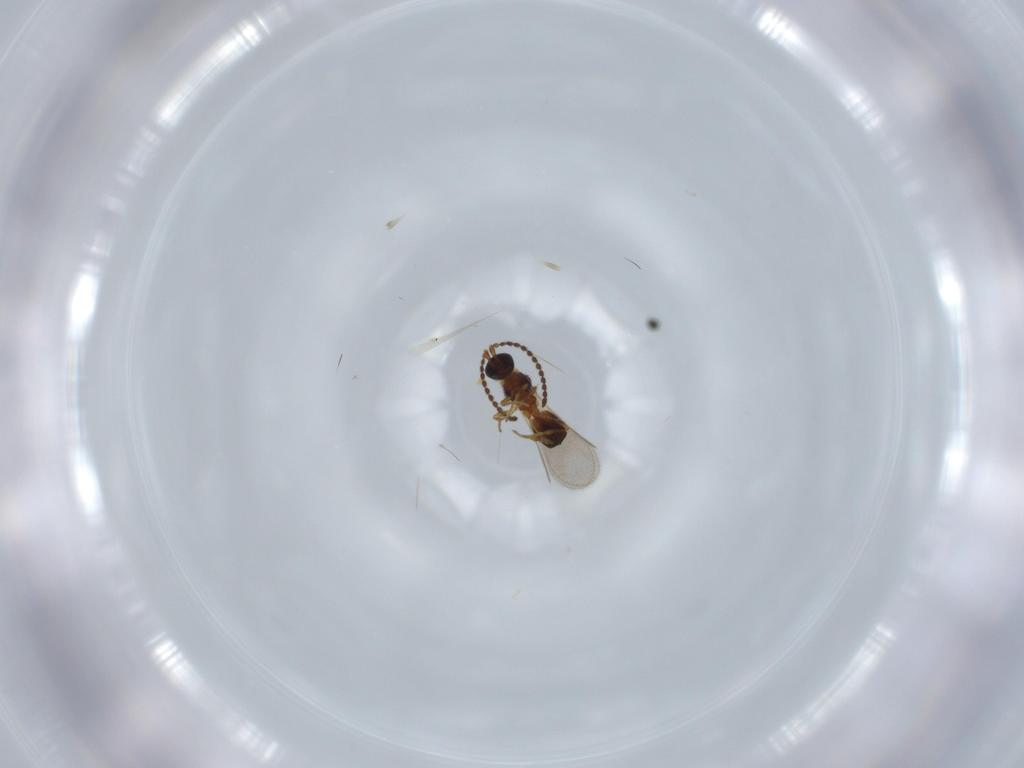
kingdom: Animalia
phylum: Arthropoda
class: Insecta
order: Hymenoptera
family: Diapriidae
